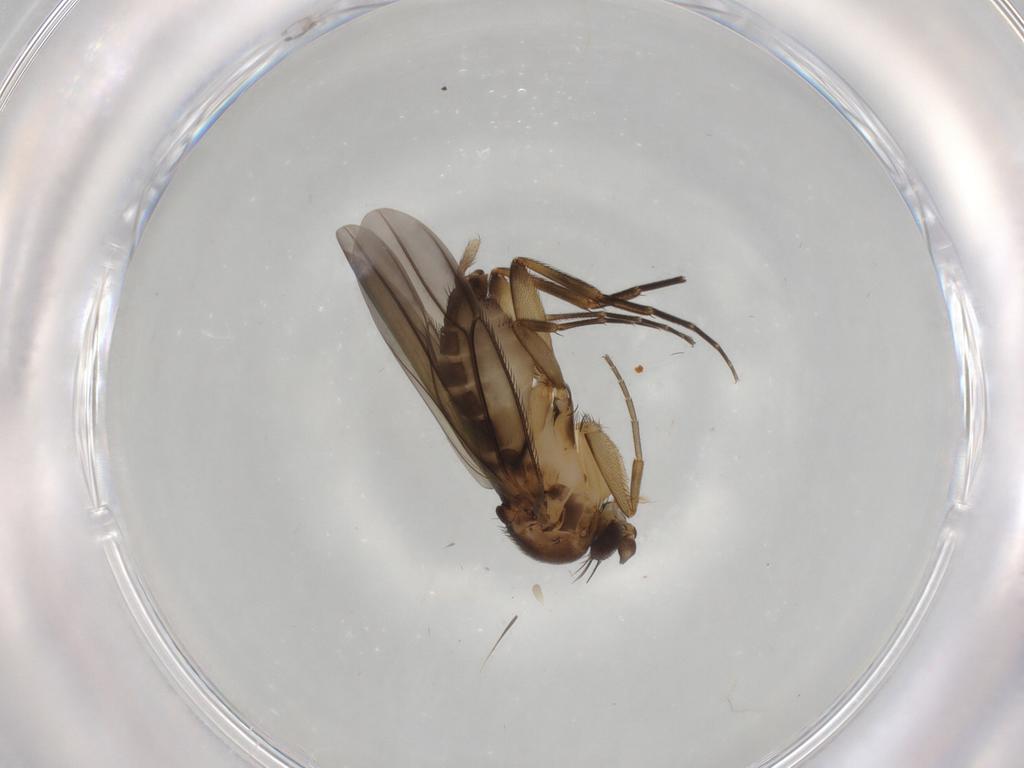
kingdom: Animalia
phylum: Arthropoda
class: Insecta
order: Diptera
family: Phoridae
